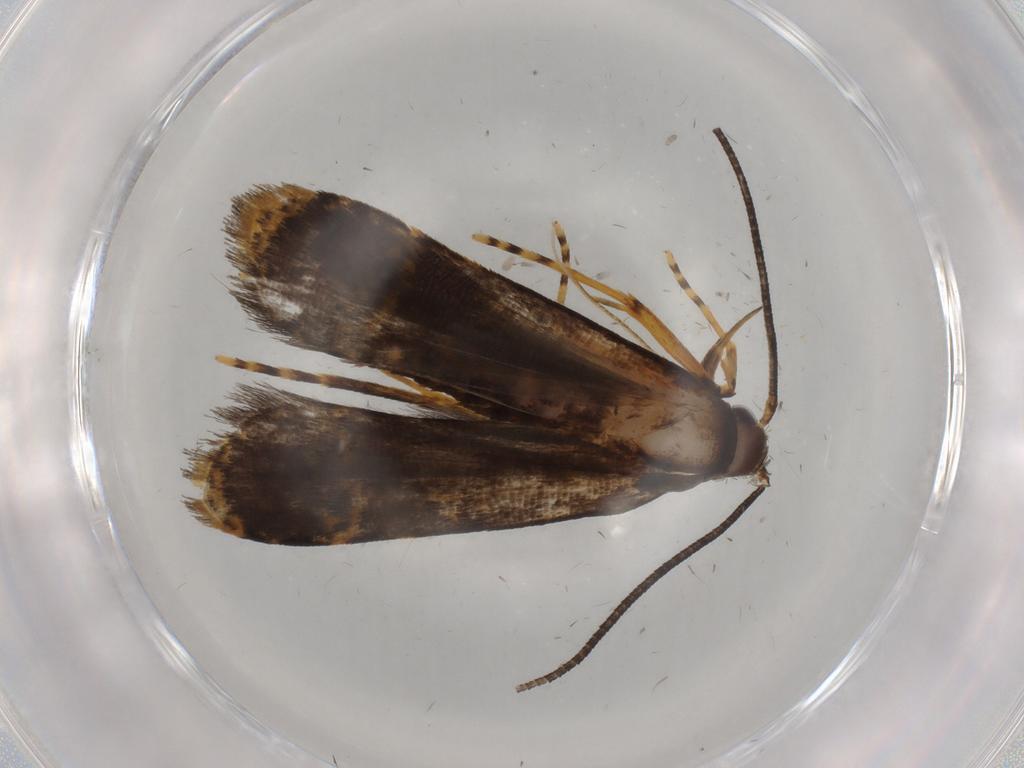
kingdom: Animalia
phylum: Arthropoda
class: Insecta
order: Lepidoptera
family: Cosmopterigidae
